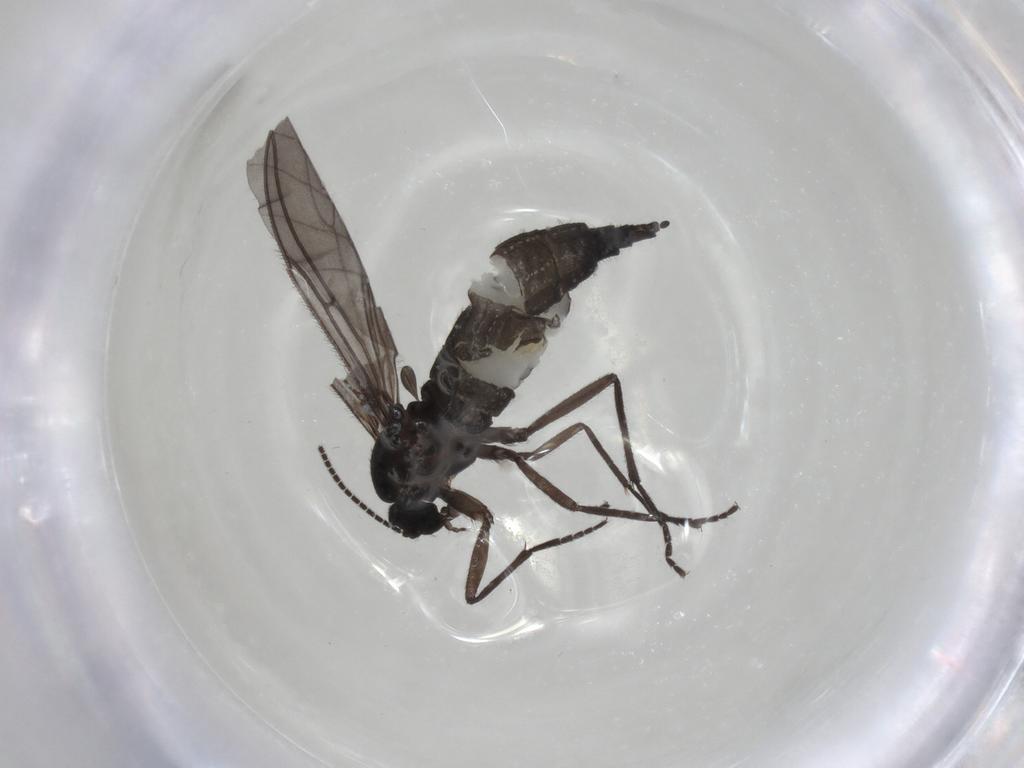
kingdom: Animalia
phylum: Arthropoda
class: Insecta
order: Diptera
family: Sciaridae
